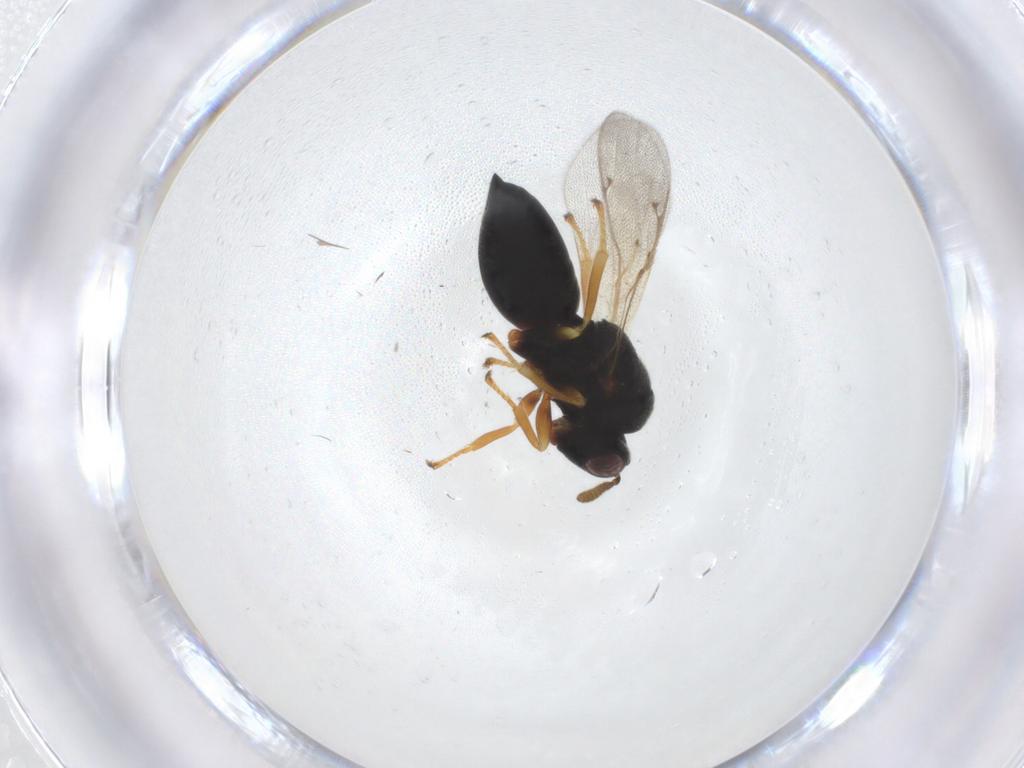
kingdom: Animalia
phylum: Arthropoda
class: Insecta
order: Hymenoptera
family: Pteromalidae
